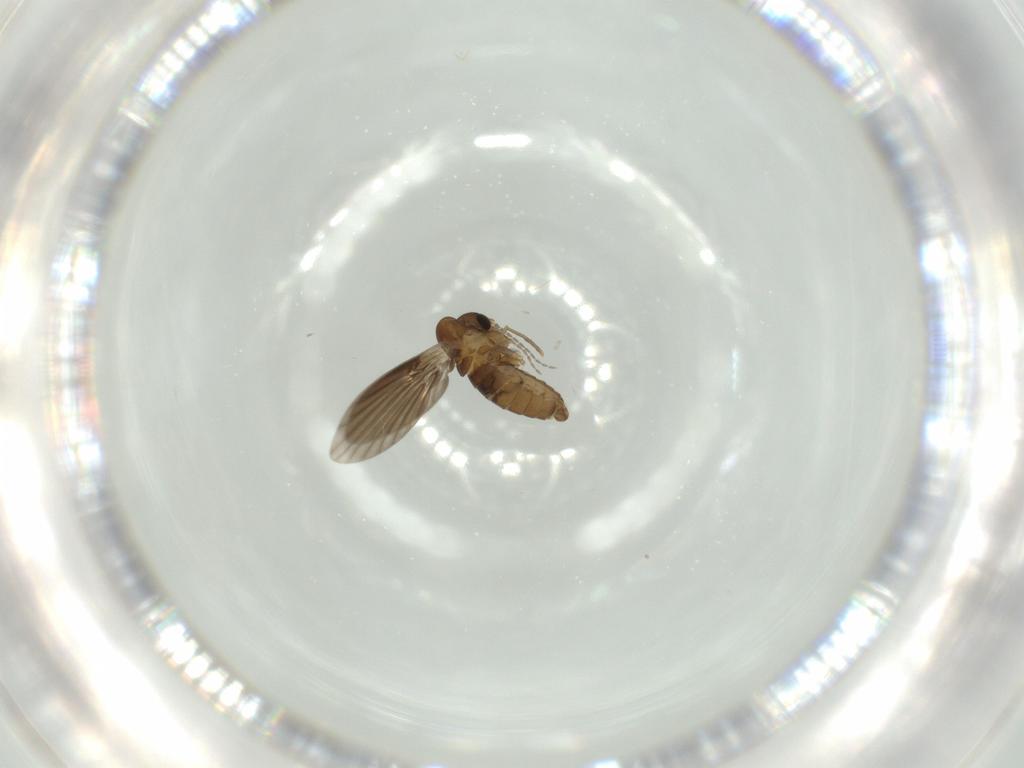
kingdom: Animalia
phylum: Arthropoda
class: Insecta
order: Diptera
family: Psychodidae
